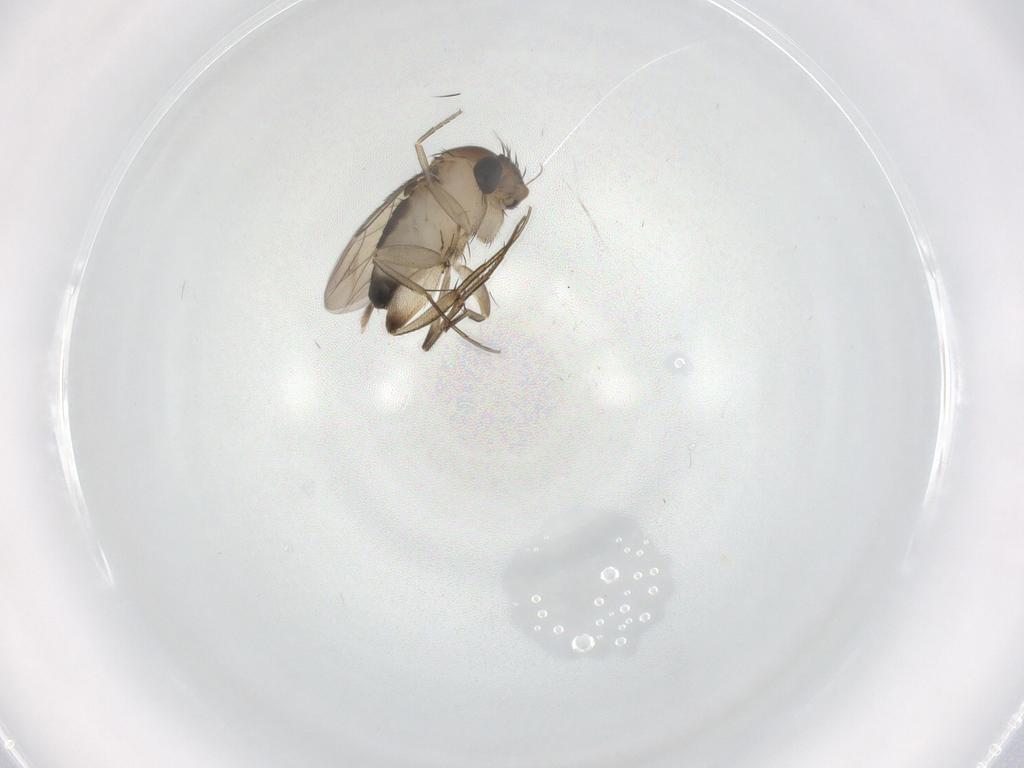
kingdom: Animalia
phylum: Arthropoda
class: Insecta
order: Diptera
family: Phoridae
